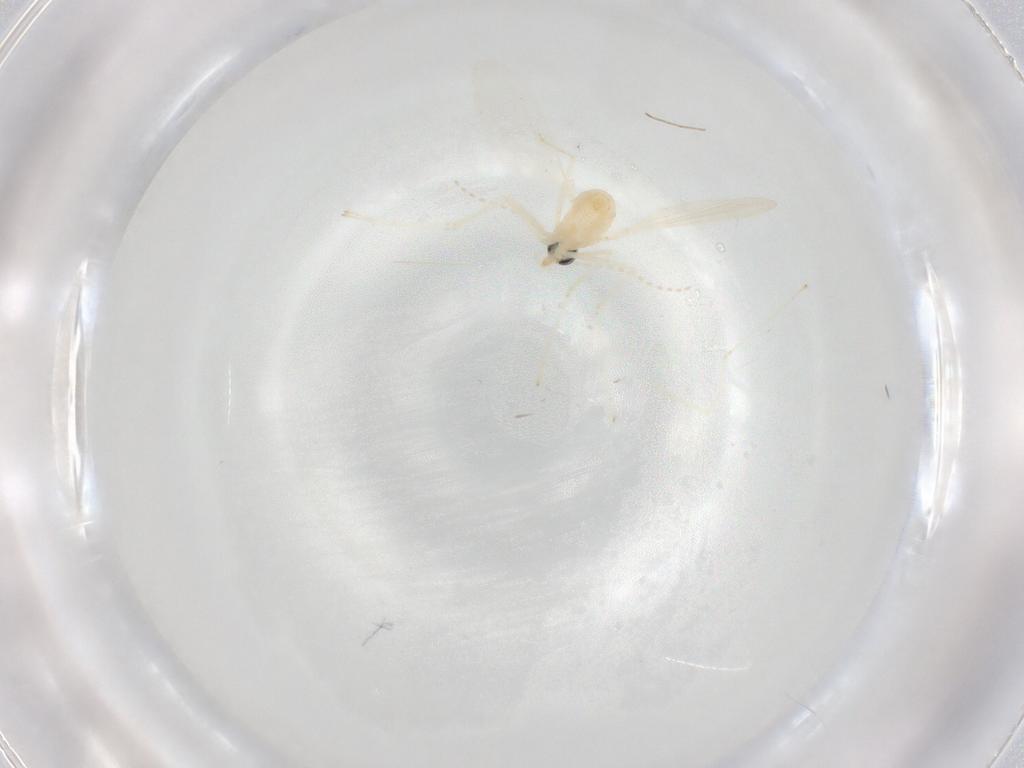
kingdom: Animalia
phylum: Arthropoda
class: Insecta
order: Diptera
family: Cecidomyiidae
